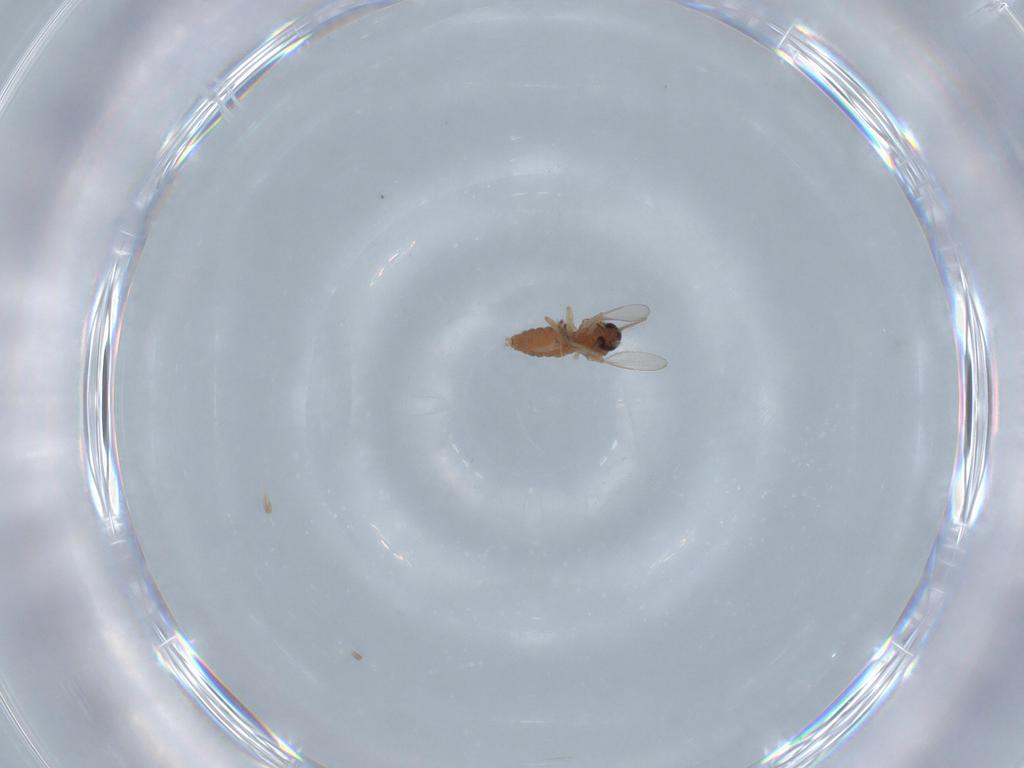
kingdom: Animalia
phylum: Arthropoda
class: Insecta
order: Diptera
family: Ceratopogonidae
